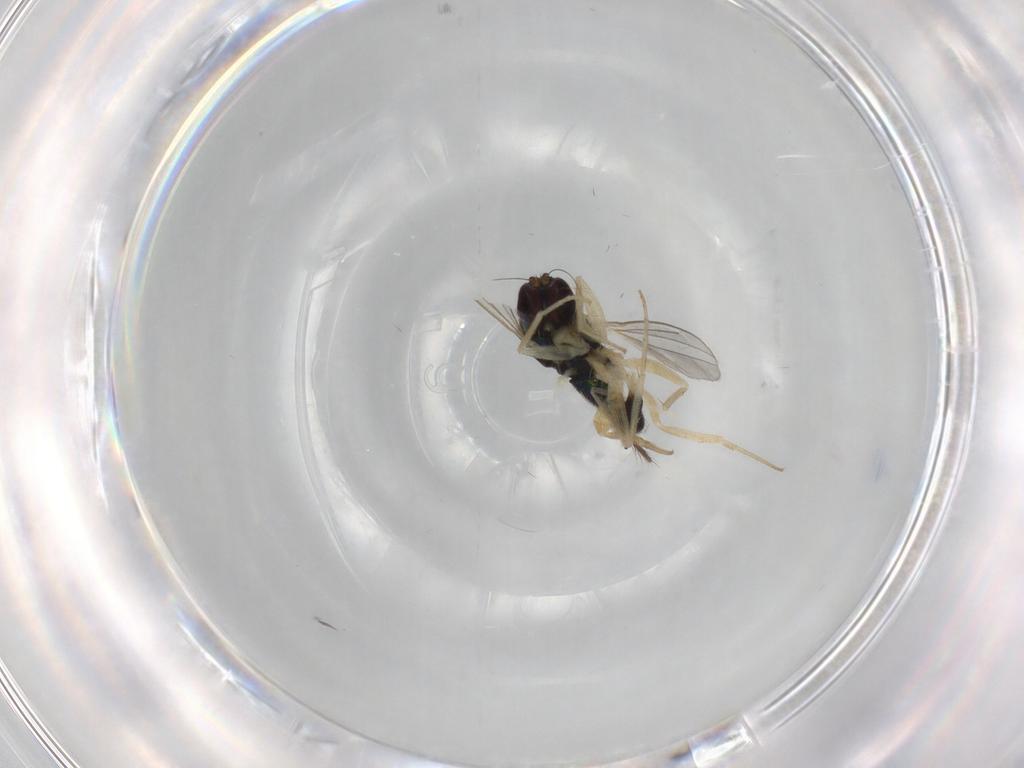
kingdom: Animalia
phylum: Arthropoda
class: Insecta
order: Diptera
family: Dolichopodidae
